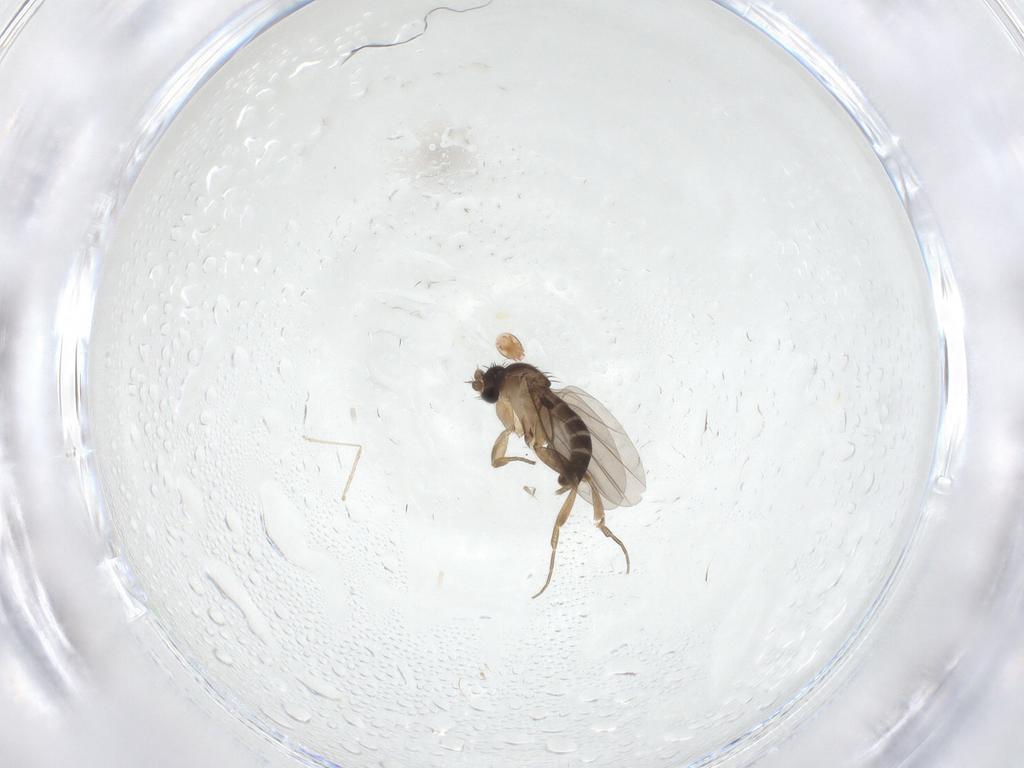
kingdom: Animalia
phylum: Arthropoda
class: Insecta
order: Diptera
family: Psychodidae
